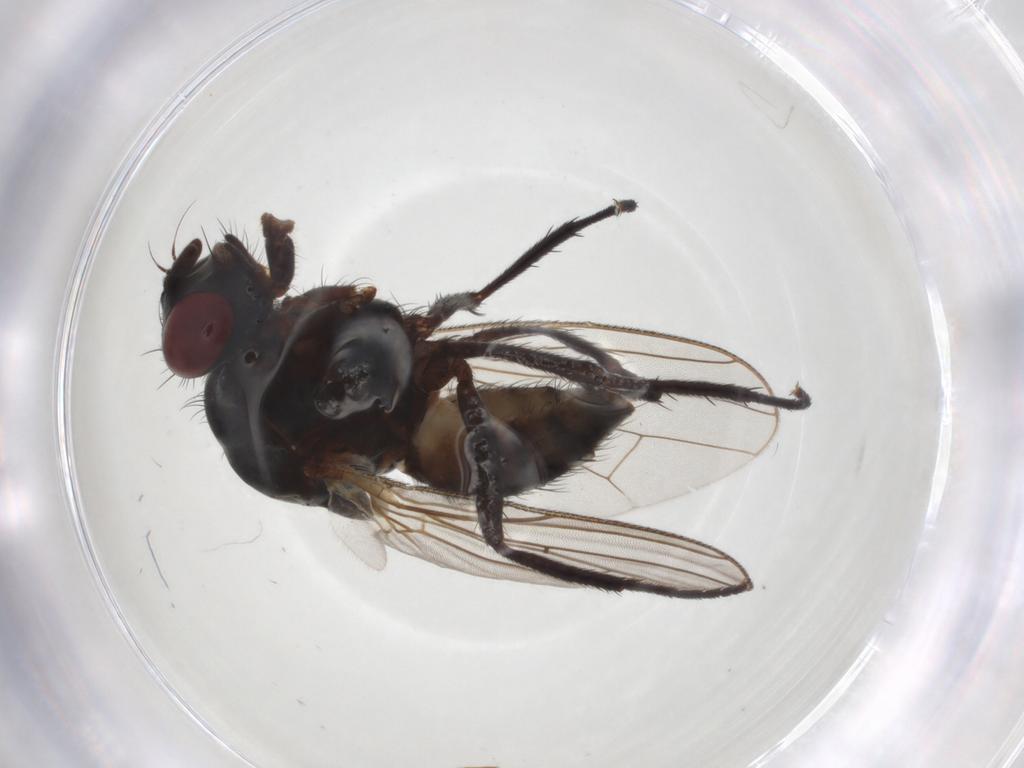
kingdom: Animalia
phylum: Arthropoda
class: Insecta
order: Diptera
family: Anthomyiidae
